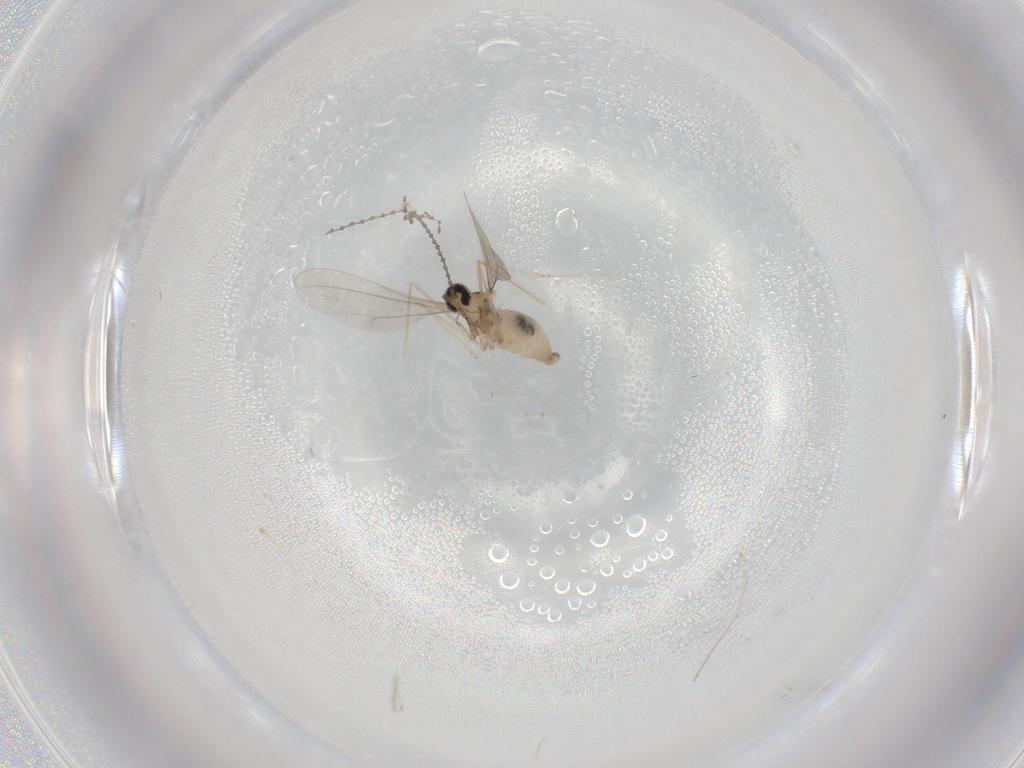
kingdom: Animalia
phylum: Arthropoda
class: Insecta
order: Diptera
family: Cecidomyiidae
